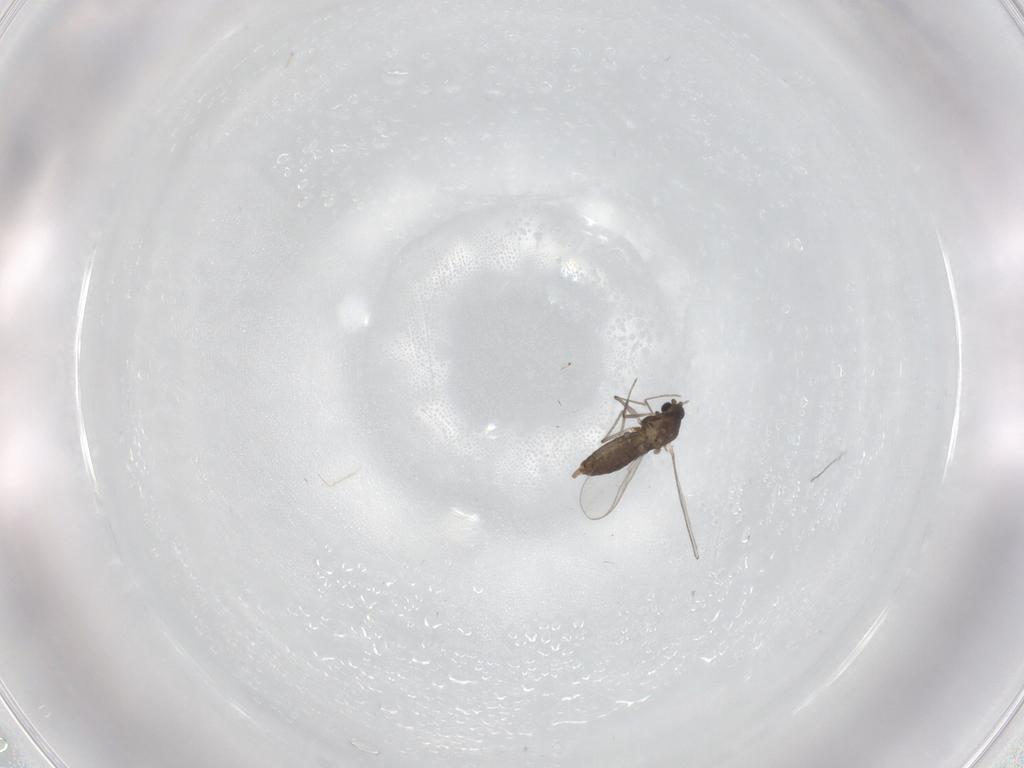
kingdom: Animalia
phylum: Arthropoda
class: Insecta
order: Diptera
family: Chironomidae
